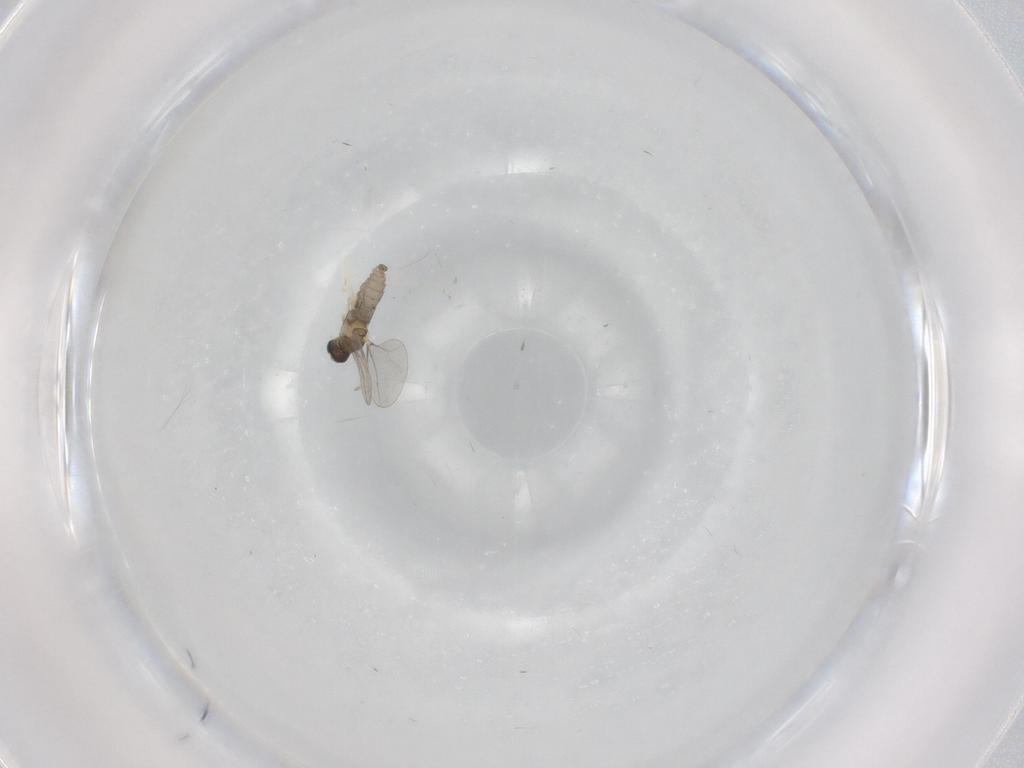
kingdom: Animalia
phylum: Arthropoda
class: Insecta
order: Diptera
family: Cecidomyiidae
